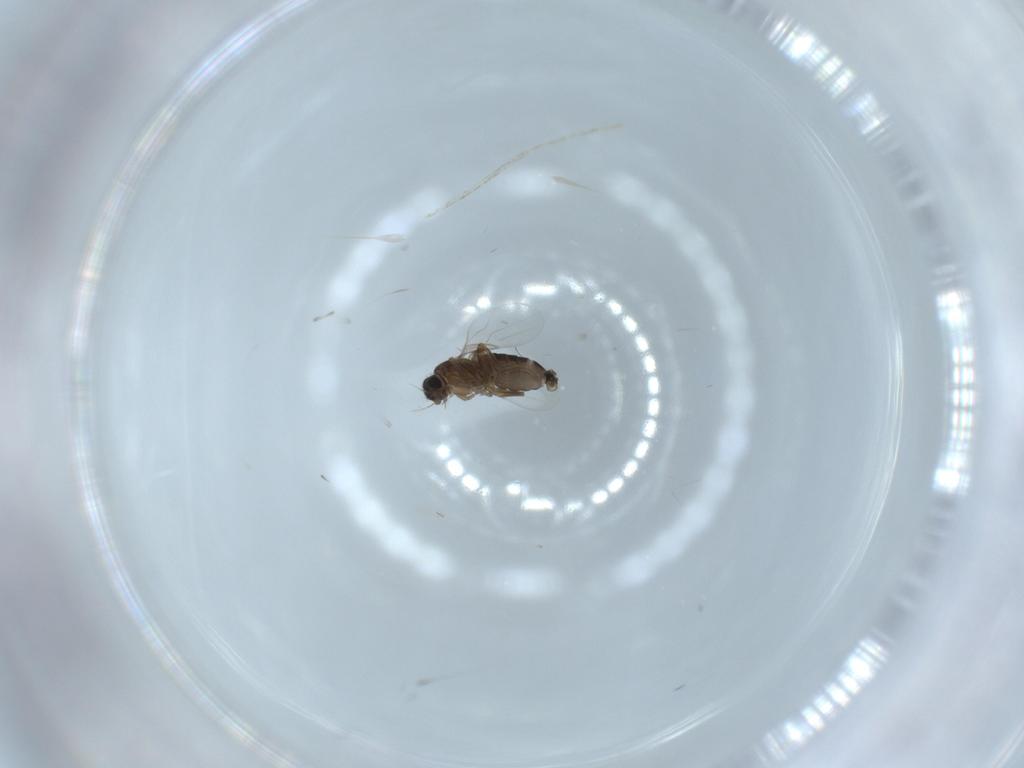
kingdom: Animalia
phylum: Arthropoda
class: Insecta
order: Diptera
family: Phoridae
